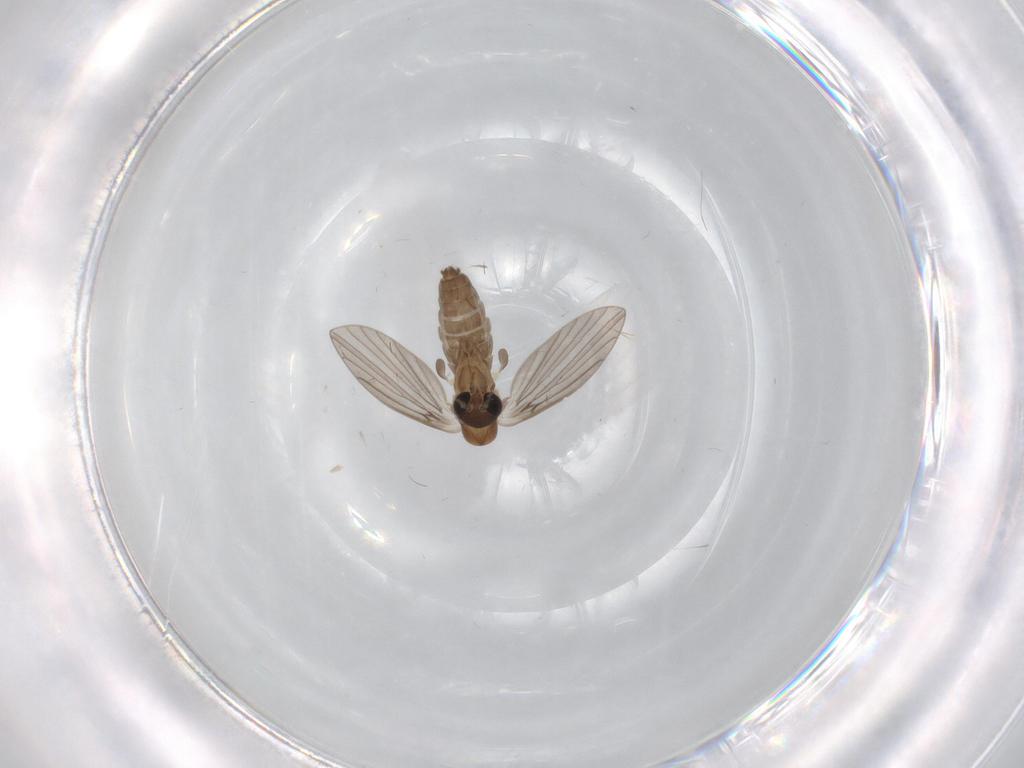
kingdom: Animalia
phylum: Arthropoda
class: Insecta
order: Diptera
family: Psychodidae
